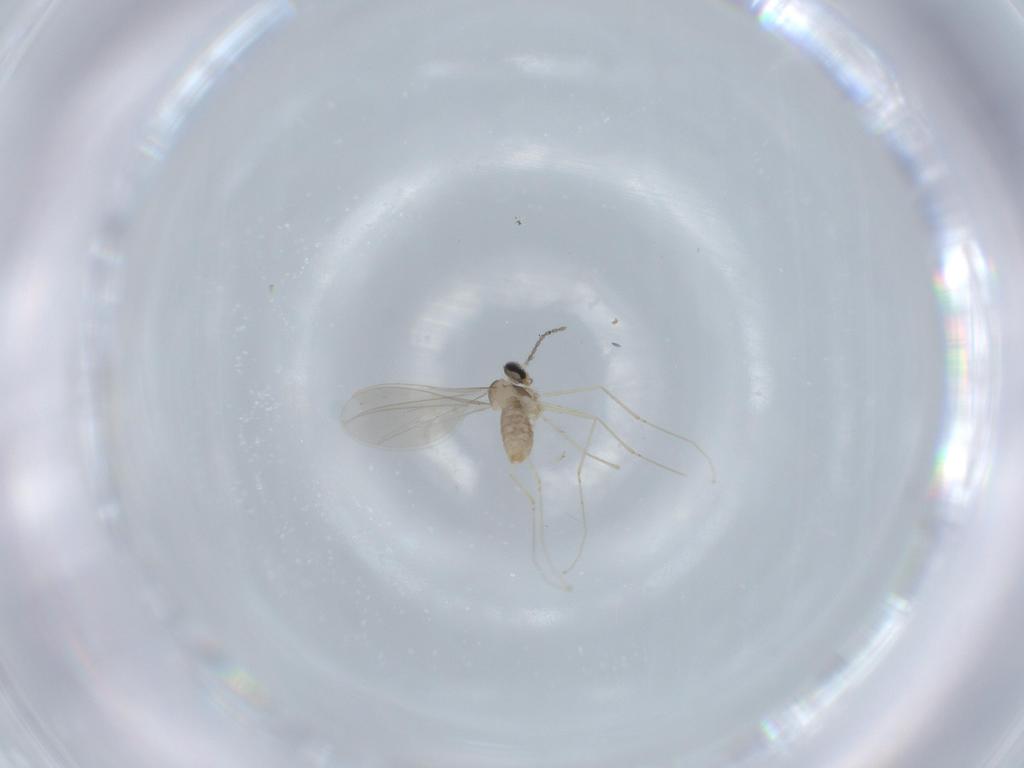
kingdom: Animalia
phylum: Arthropoda
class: Insecta
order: Diptera
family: Cecidomyiidae
